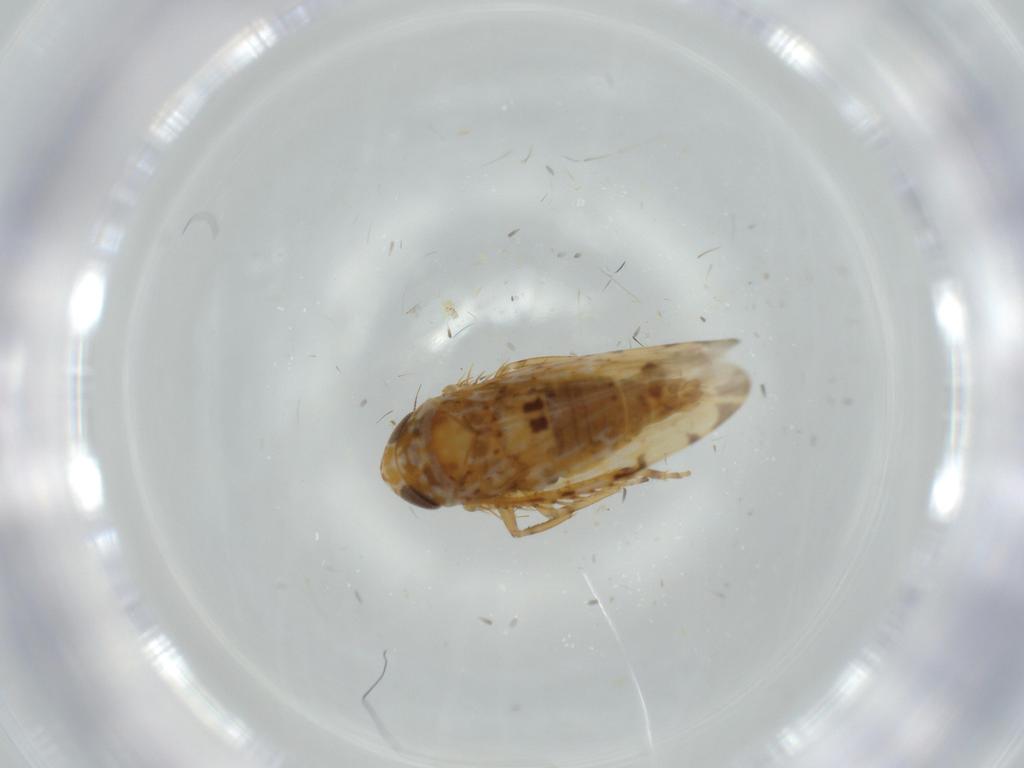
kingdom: Animalia
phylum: Arthropoda
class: Insecta
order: Hemiptera
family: Cicadellidae
